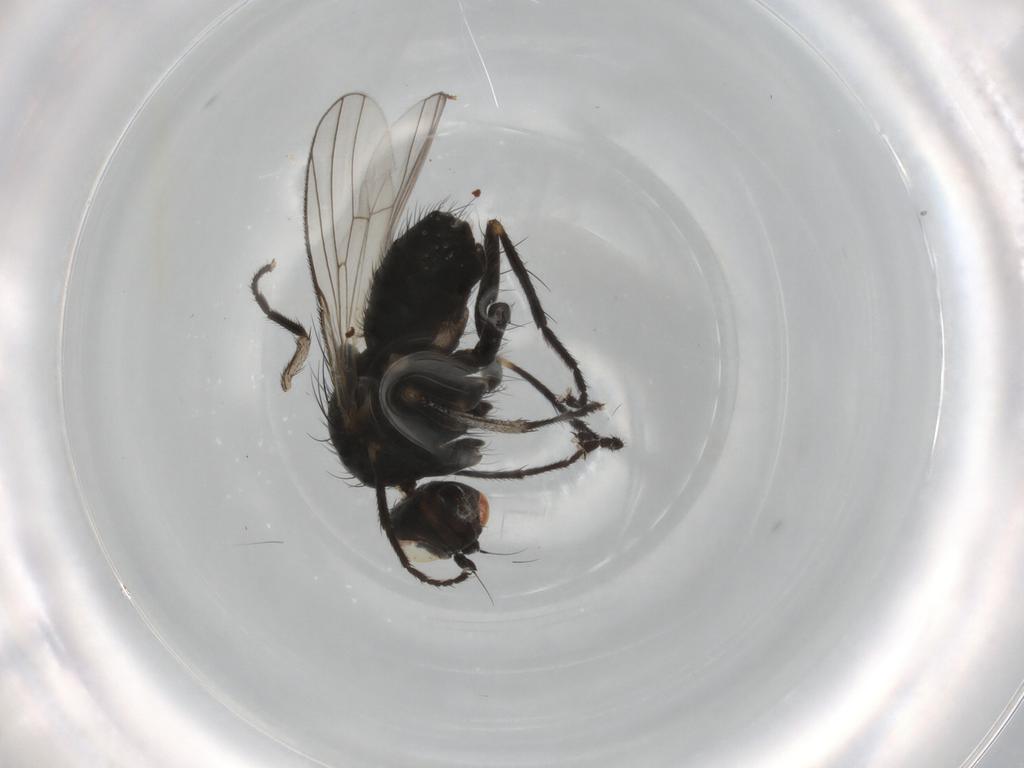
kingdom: Animalia
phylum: Arthropoda
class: Insecta
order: Diptera
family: Muscidae
